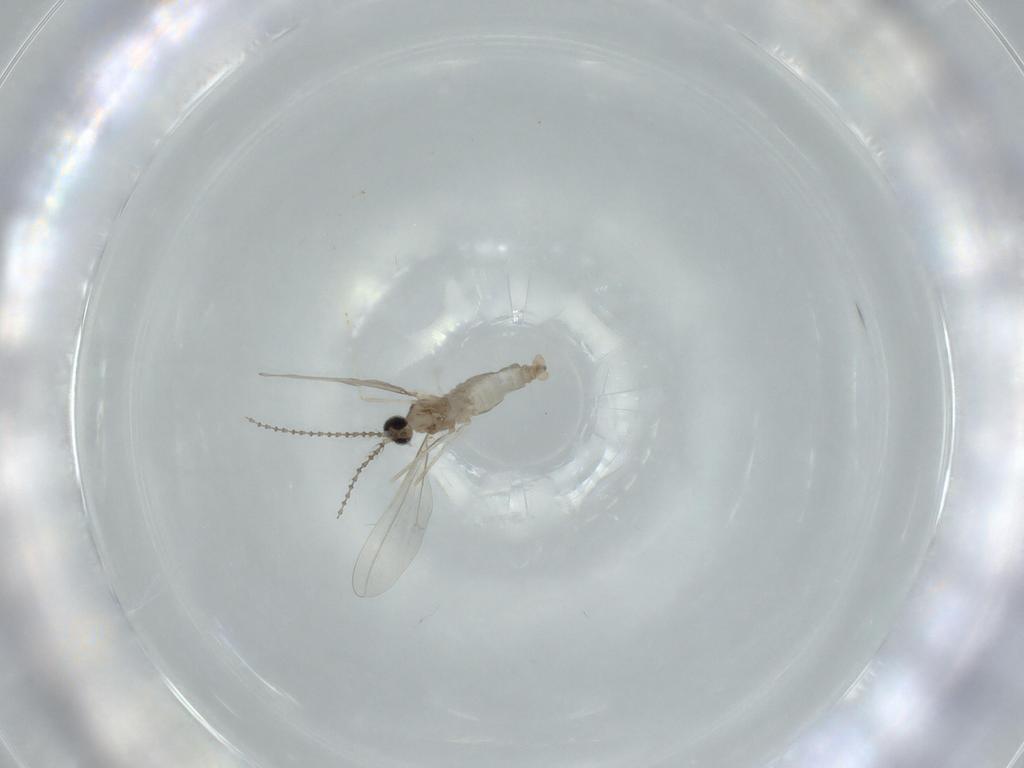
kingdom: Animalia
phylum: Arthropoda
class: Insecta
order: Diptera
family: Cecidomyiidae
